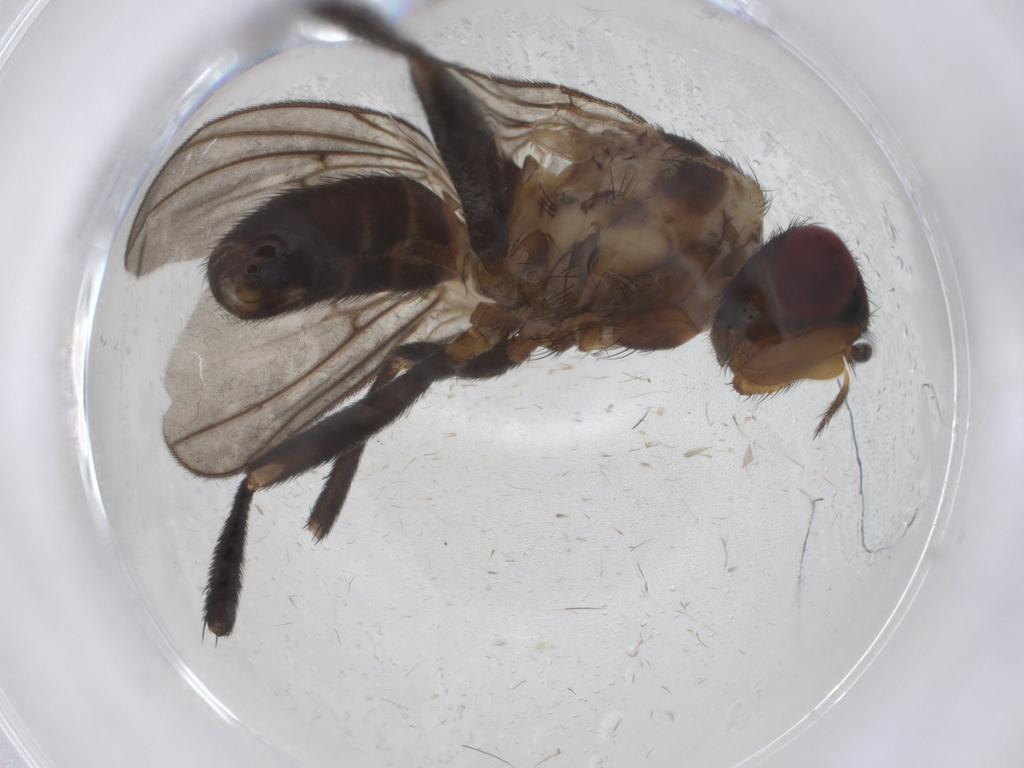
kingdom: Animalia
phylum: Arthropoda
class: Insecta
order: Diptera
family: Calliphoridae
